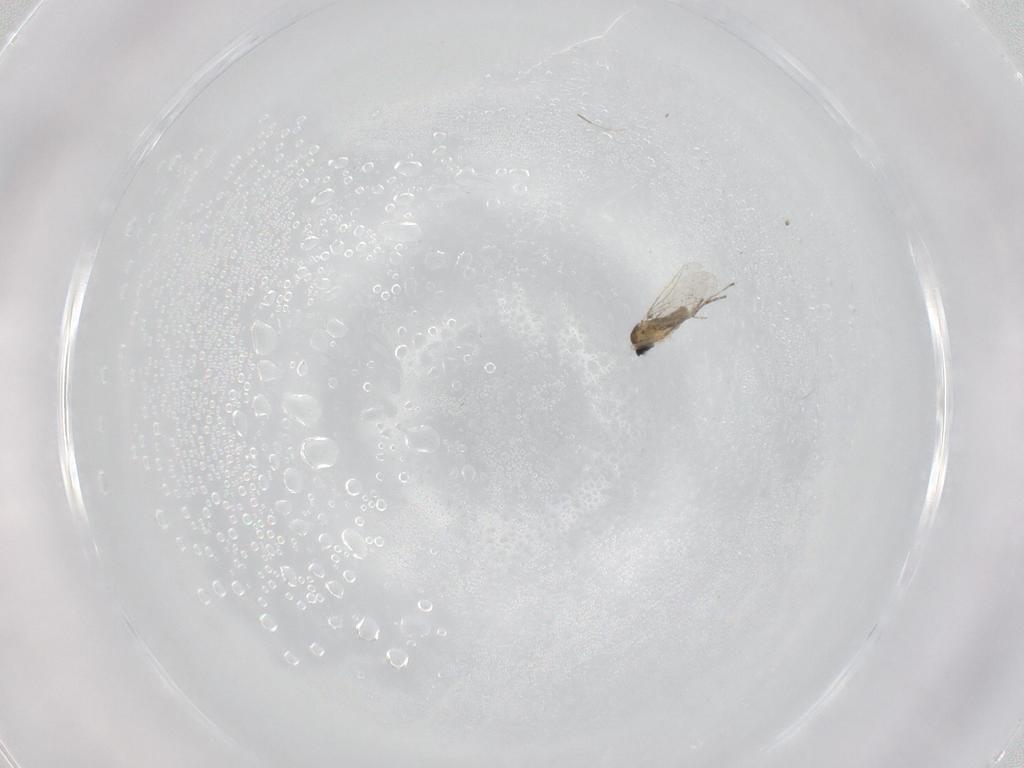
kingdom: Animalia
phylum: Arthropoda
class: Insecta
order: Diptera
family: Cecidomyiidae
